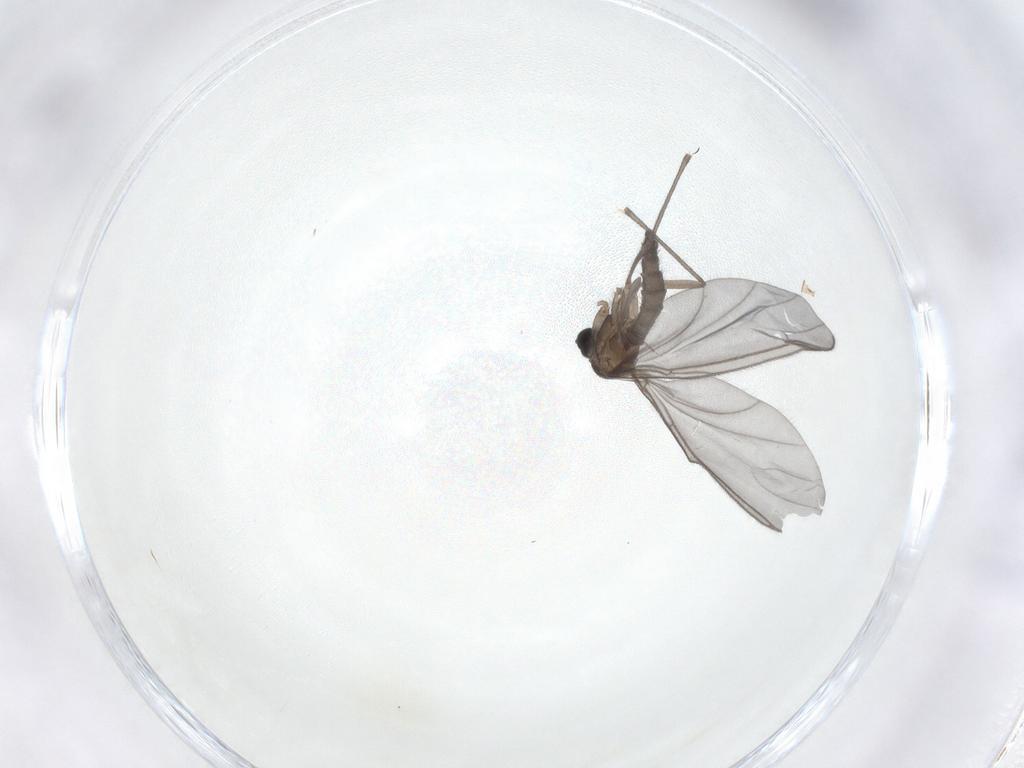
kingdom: Animalia
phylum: Arthropoda
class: Insecta
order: Diptera
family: Sciaridae
